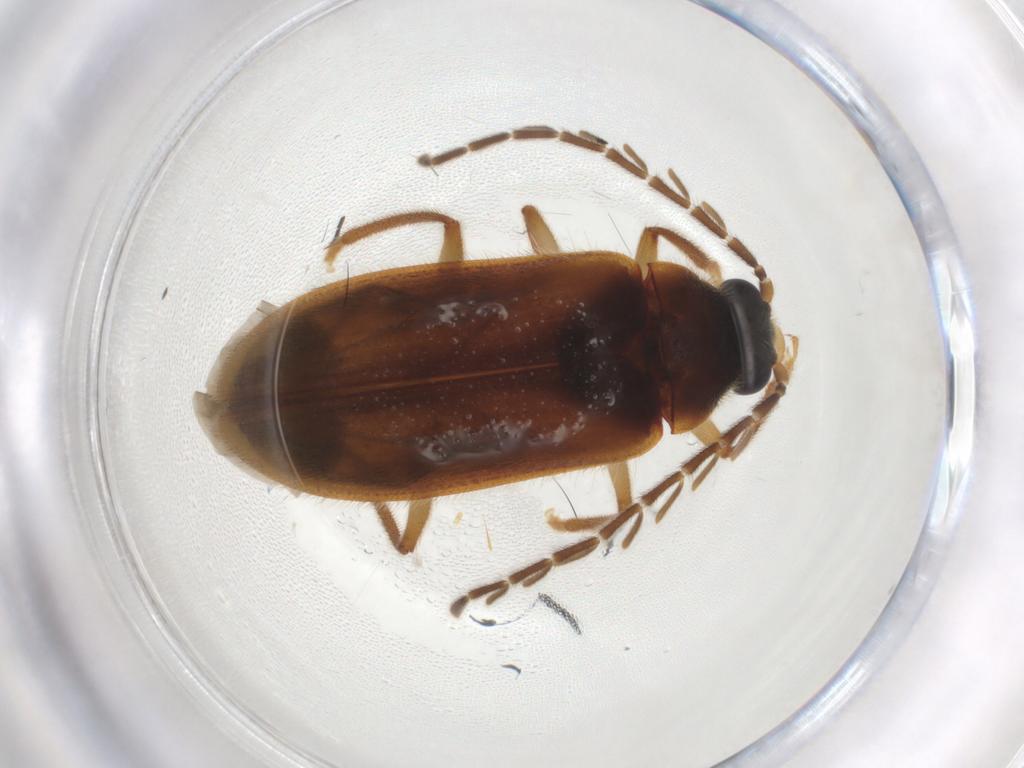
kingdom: Animalia
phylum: Arthropoda
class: Insecta
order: Coleoptera
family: Ptilodactylidae
